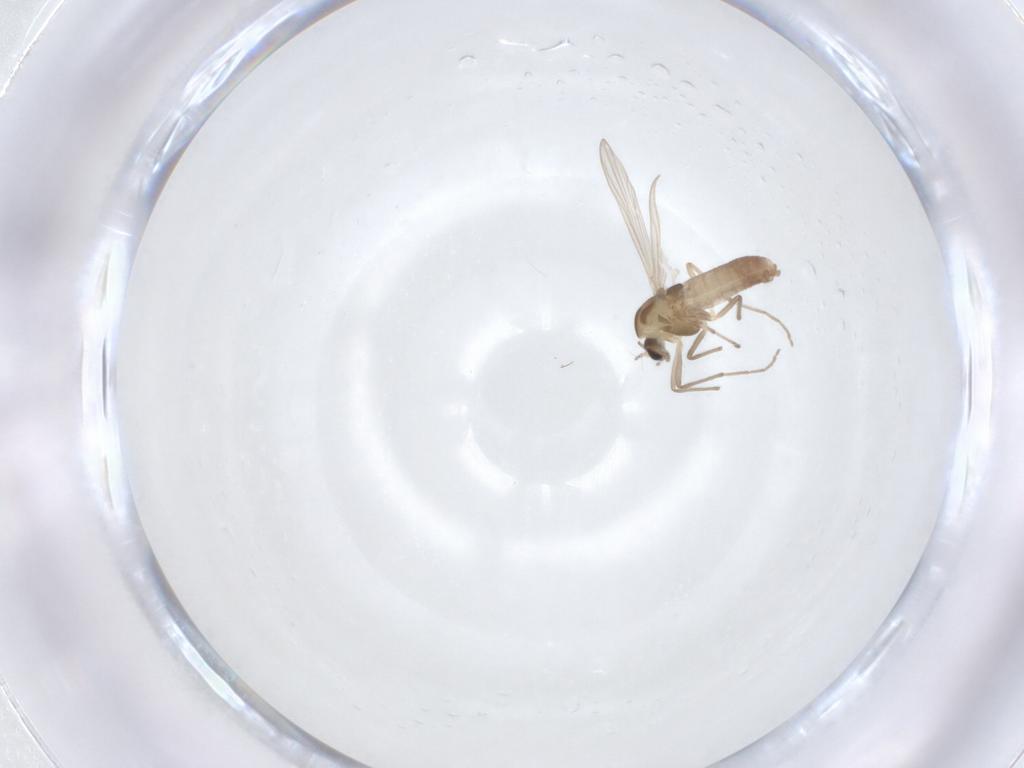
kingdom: Animalia
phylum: Arthropoda
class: Insecta
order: Diptera
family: Chironomidae
